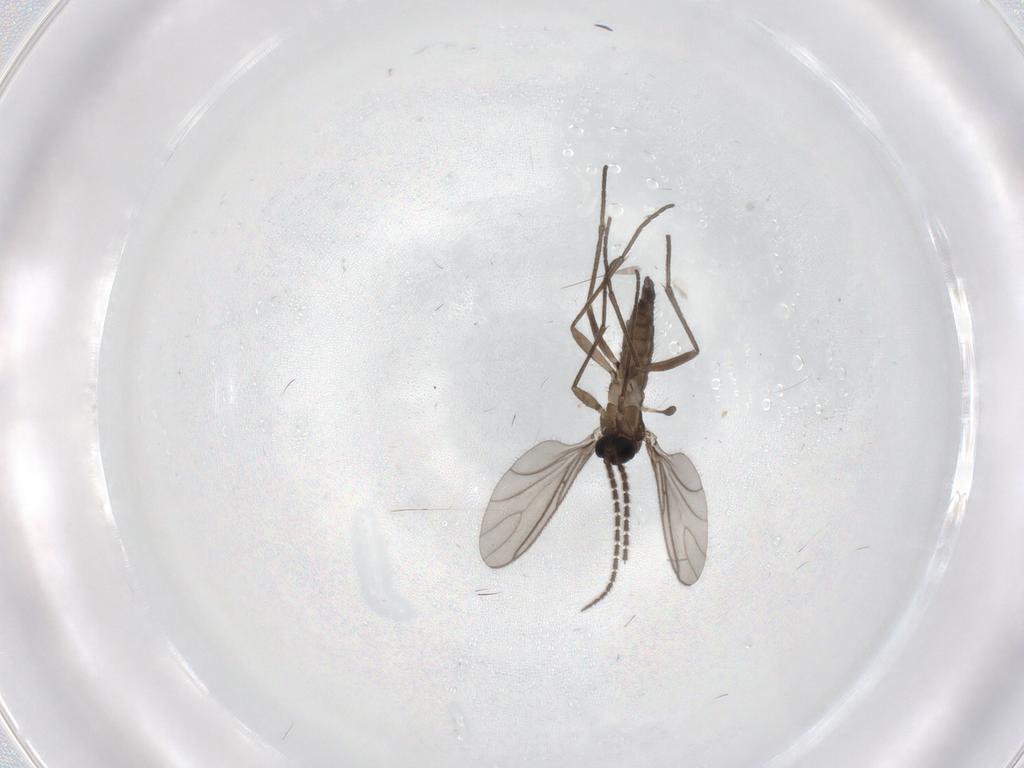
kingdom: Animalia
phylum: Arthropoda
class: Insecta
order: Diptera
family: Sciaridae
